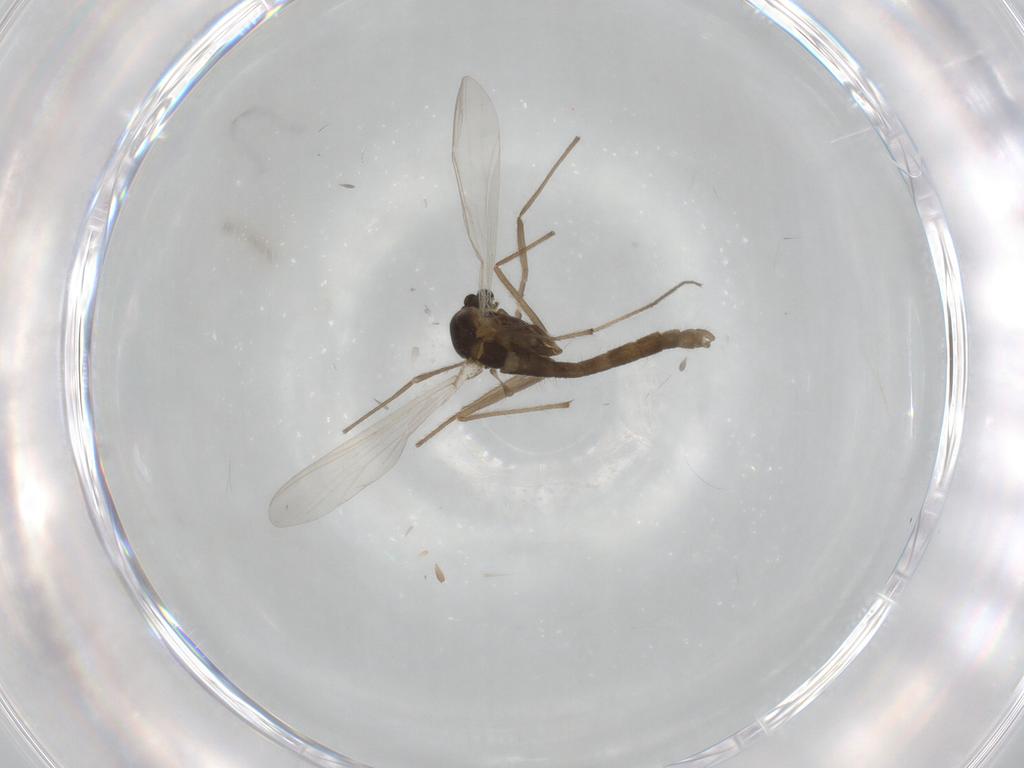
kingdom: Animalia
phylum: Arthropoda
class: Insecta
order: Diptera
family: Chironomidae
